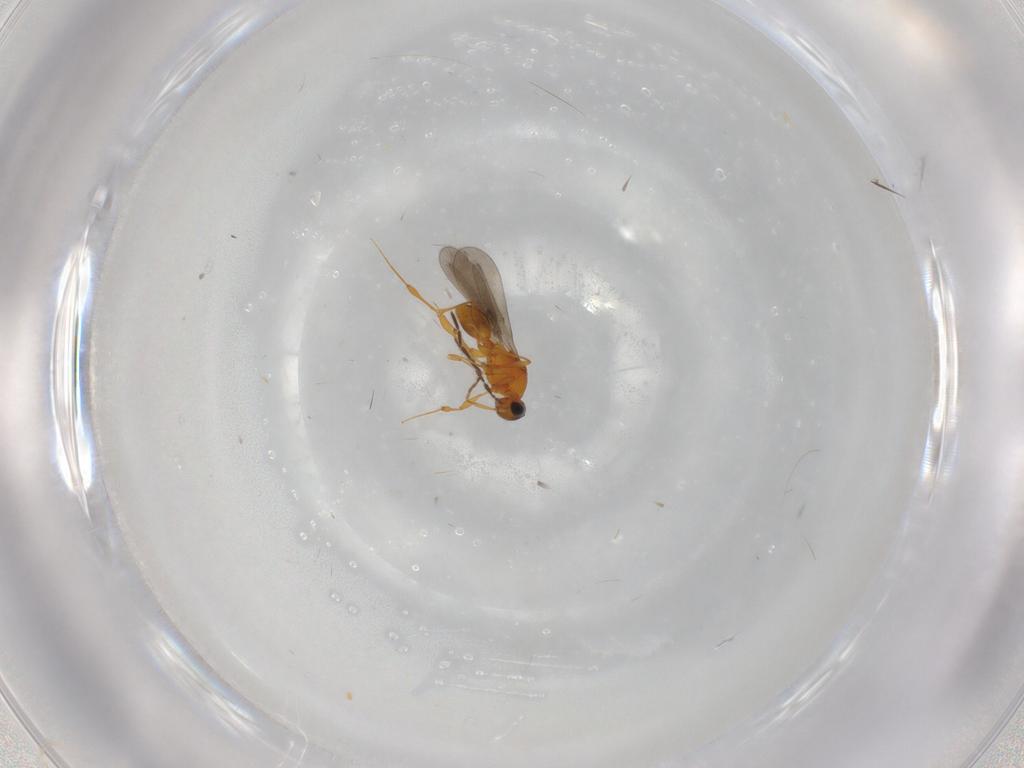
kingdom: Animalia
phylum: Arthropoda
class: Insecta
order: Hymenoptera
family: Platygastridae
